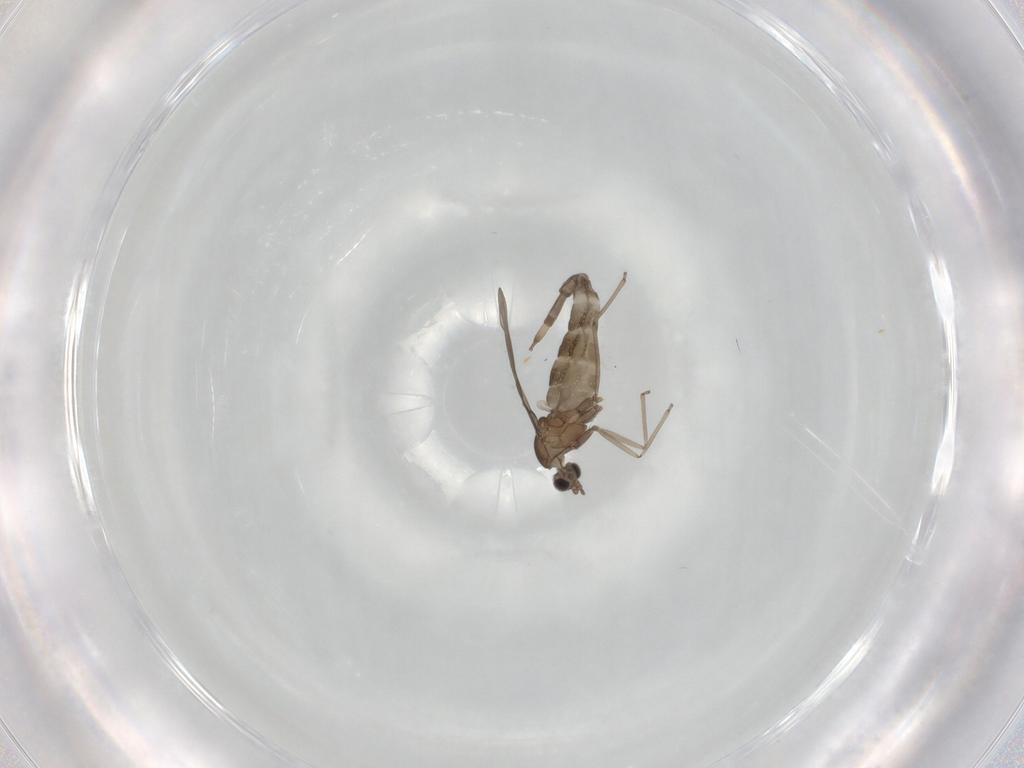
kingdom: Animalia
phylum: Arthropoda
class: Insecta
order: Diptera
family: Cecidomyiidae
